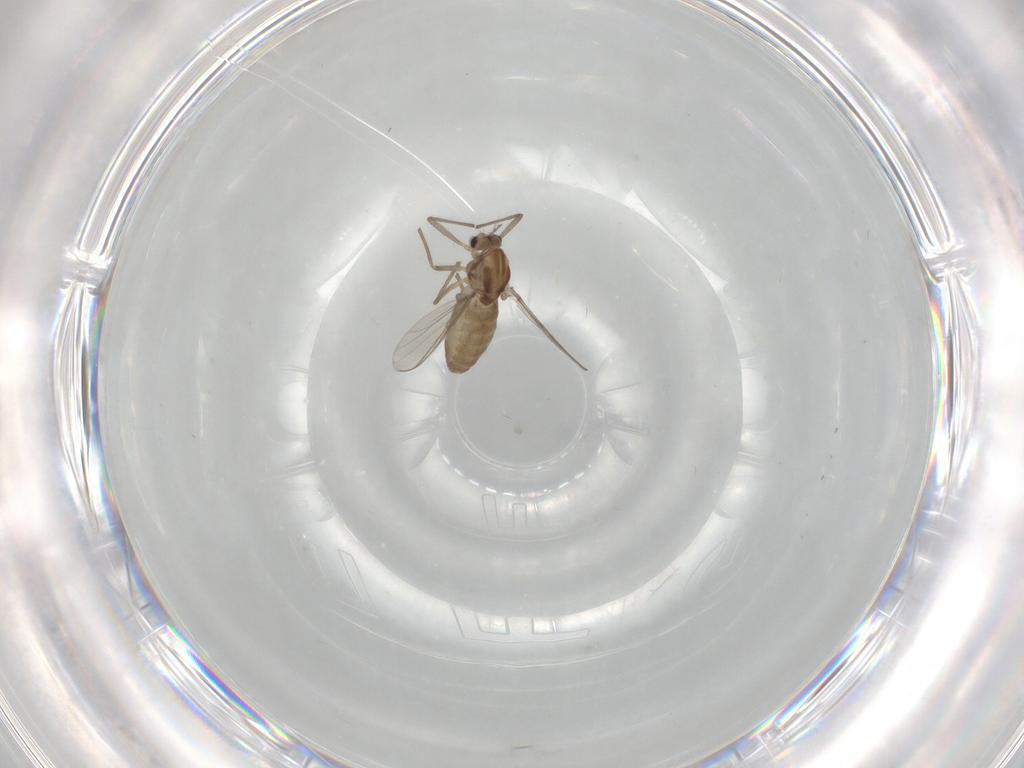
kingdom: Animalia
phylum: Arthropoda
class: Insecta
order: Diptera
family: Chironomidae
